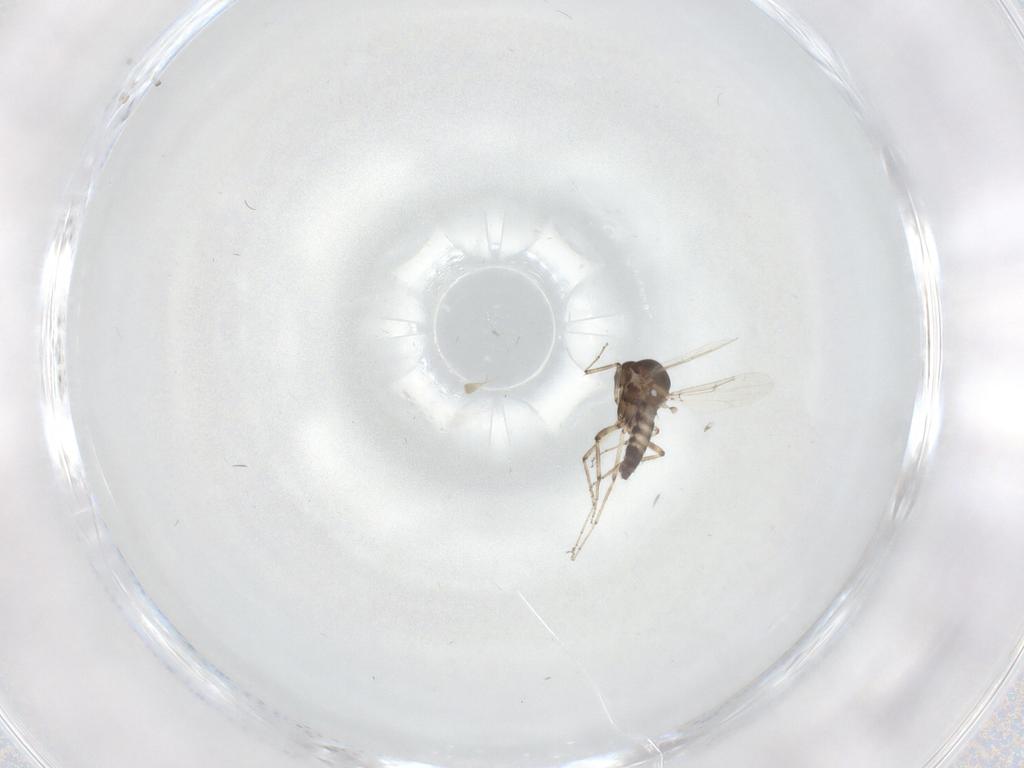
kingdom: Animalia
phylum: Arthropoda
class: Insecta
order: Diptera
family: Ceratopogonidae
